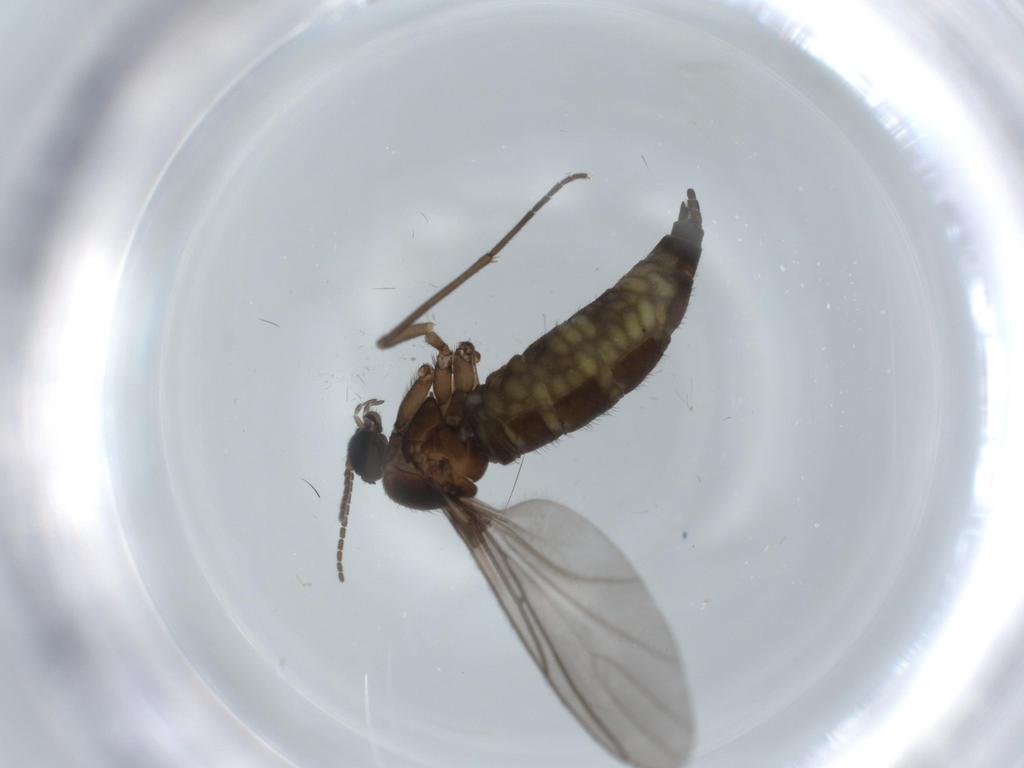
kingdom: Animalia
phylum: Arthropoda
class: Insecta
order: Diptera
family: Sciaridae
